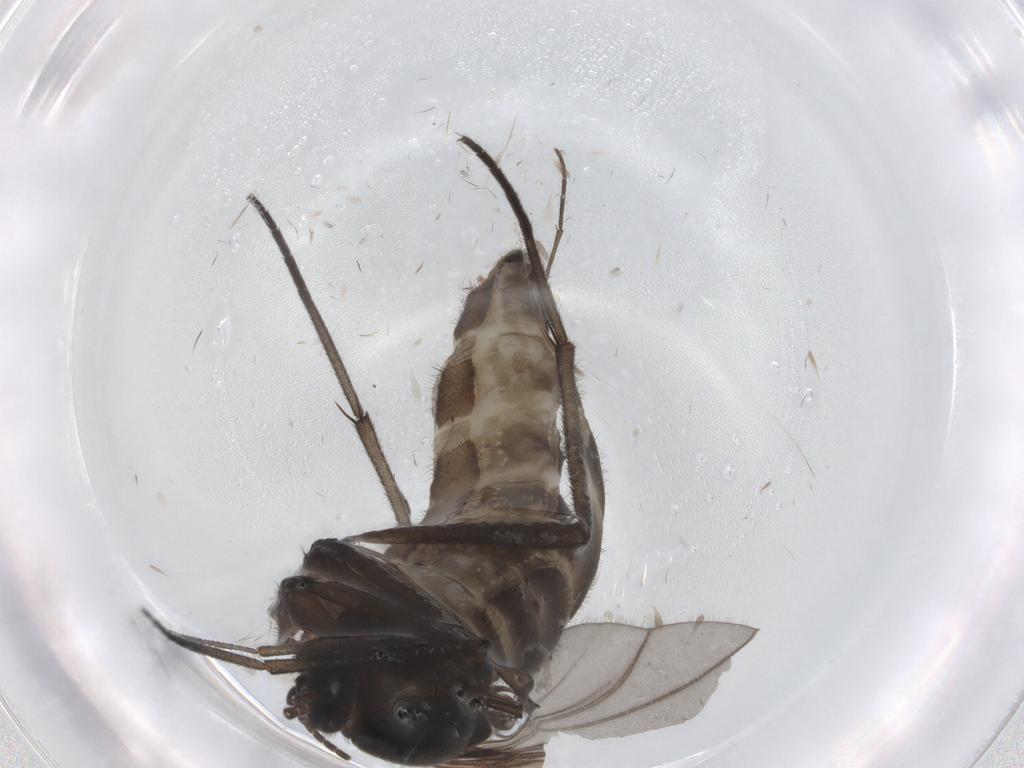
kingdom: Animalia
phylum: Arthropoda
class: Insecta
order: Diptera
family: Sciaridae
